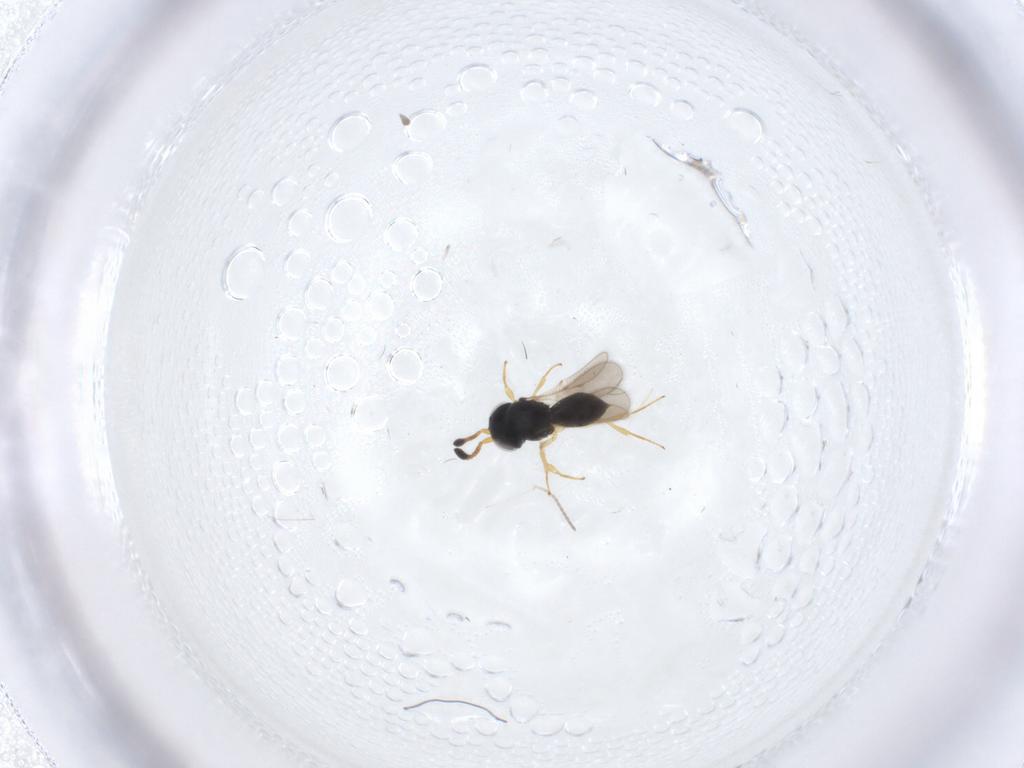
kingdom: Animalia
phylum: Arthropoda
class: Insecta
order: Hymenoptera
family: Scelionidae
